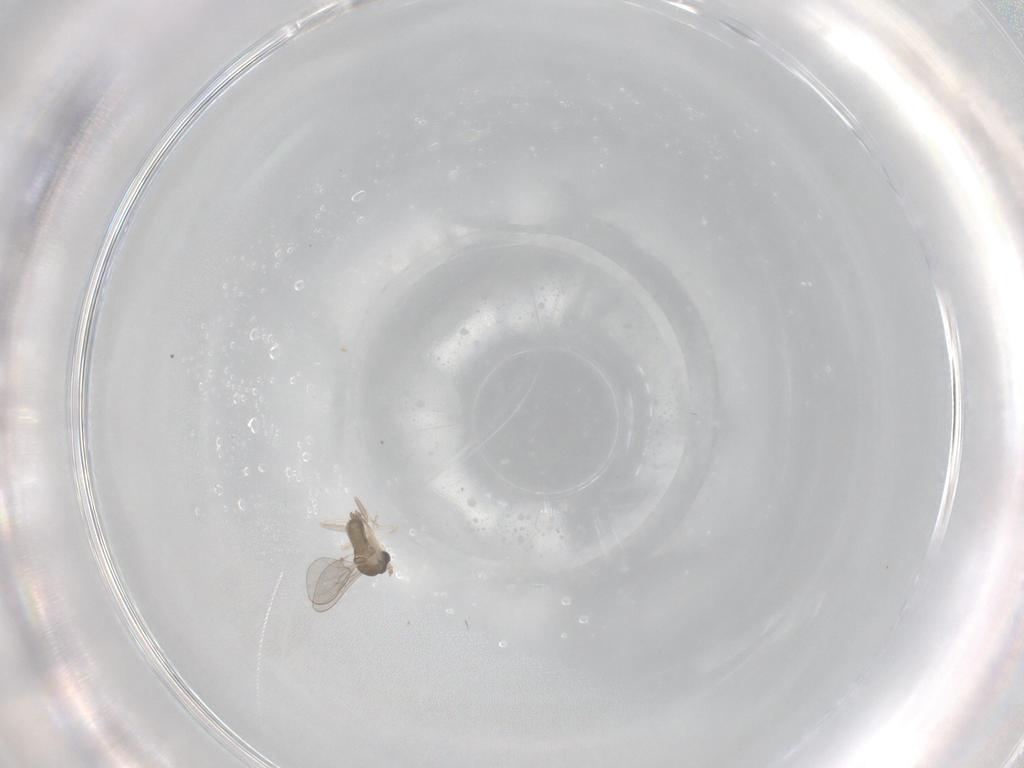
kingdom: Animalia
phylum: Arthropoda
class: Insecta
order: Diptera
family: Cecidomyiidae
